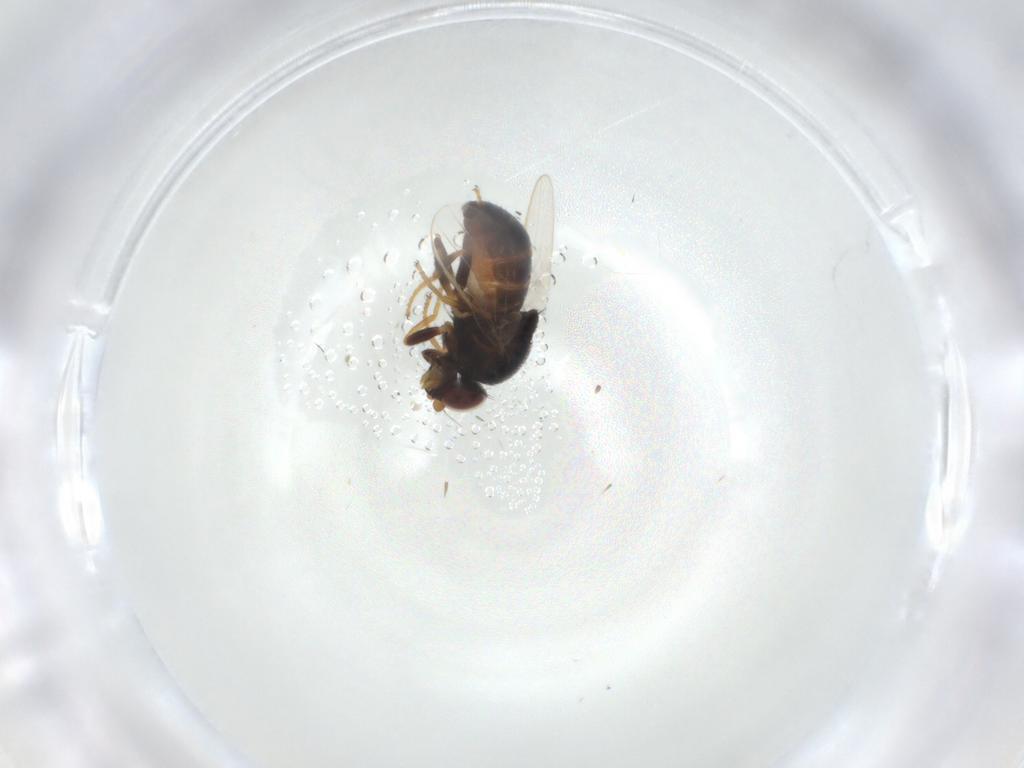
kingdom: Animalia
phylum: Arthropoda
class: Insecta
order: Diptera
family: Chloropidae
